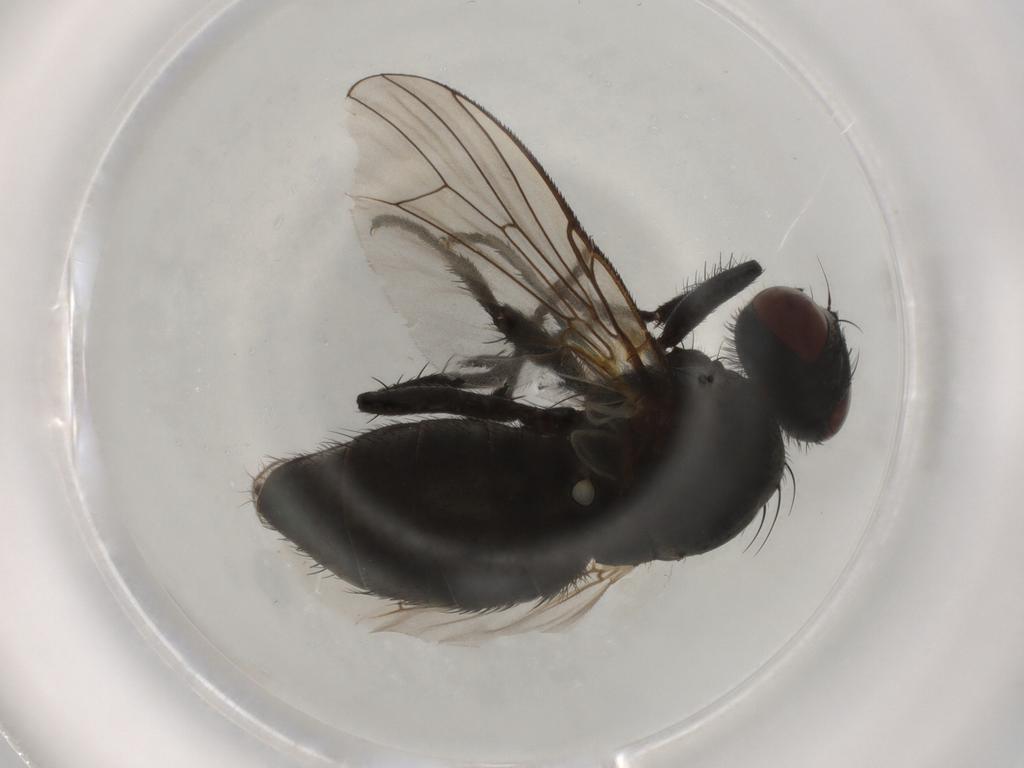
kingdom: Animalia
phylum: Arthropoda
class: Insecta
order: Diptera
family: Muscidae
